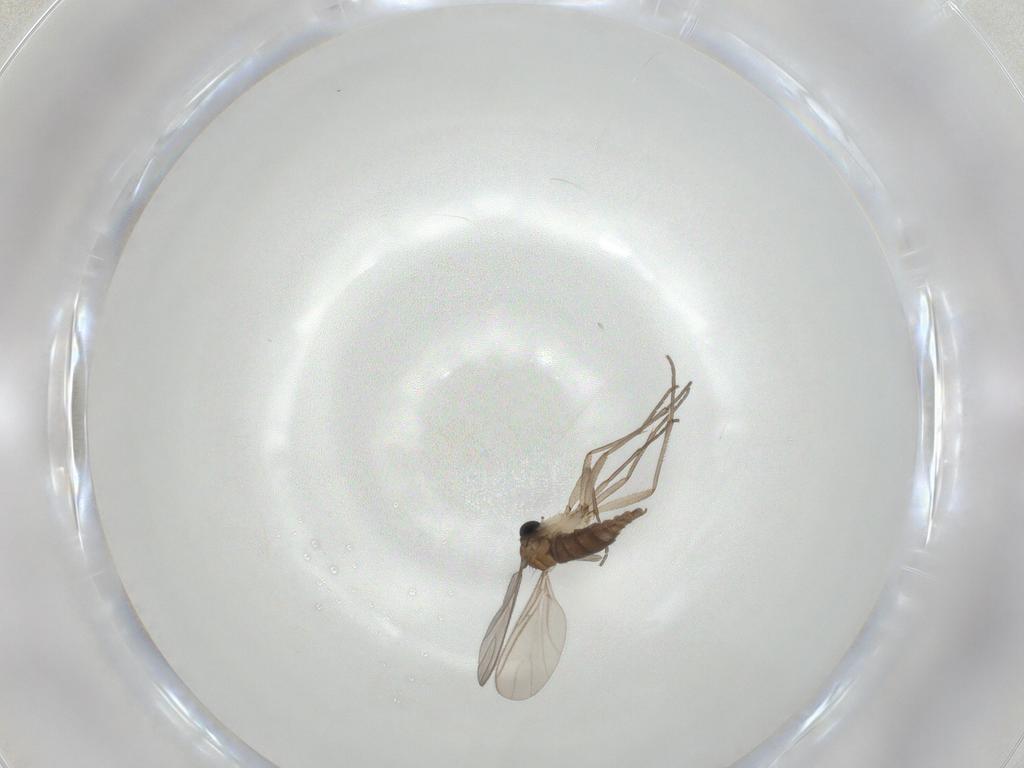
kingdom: Animalia
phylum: Arthropoda
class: Insecta
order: Diptera
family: Sciaridae
